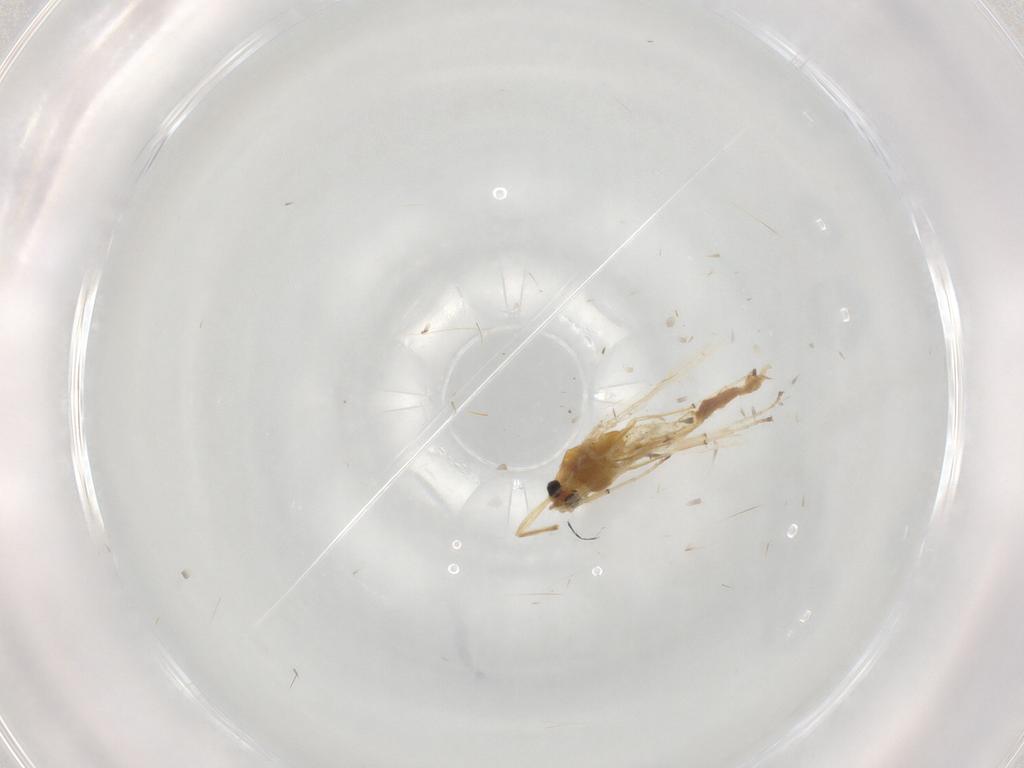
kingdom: Animalia
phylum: Arthropoda
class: Insecta
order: Diptera
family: Chironomidae
